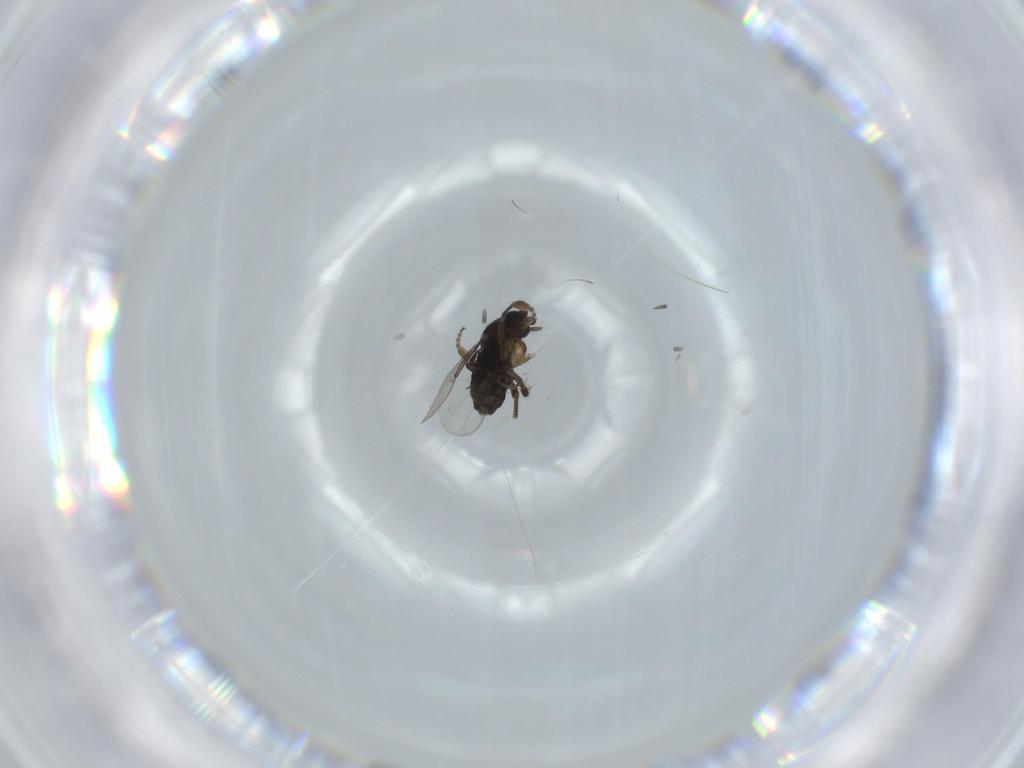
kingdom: Animalia
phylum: Arthropoda
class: Insecta
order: Diptera
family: Phoridae
